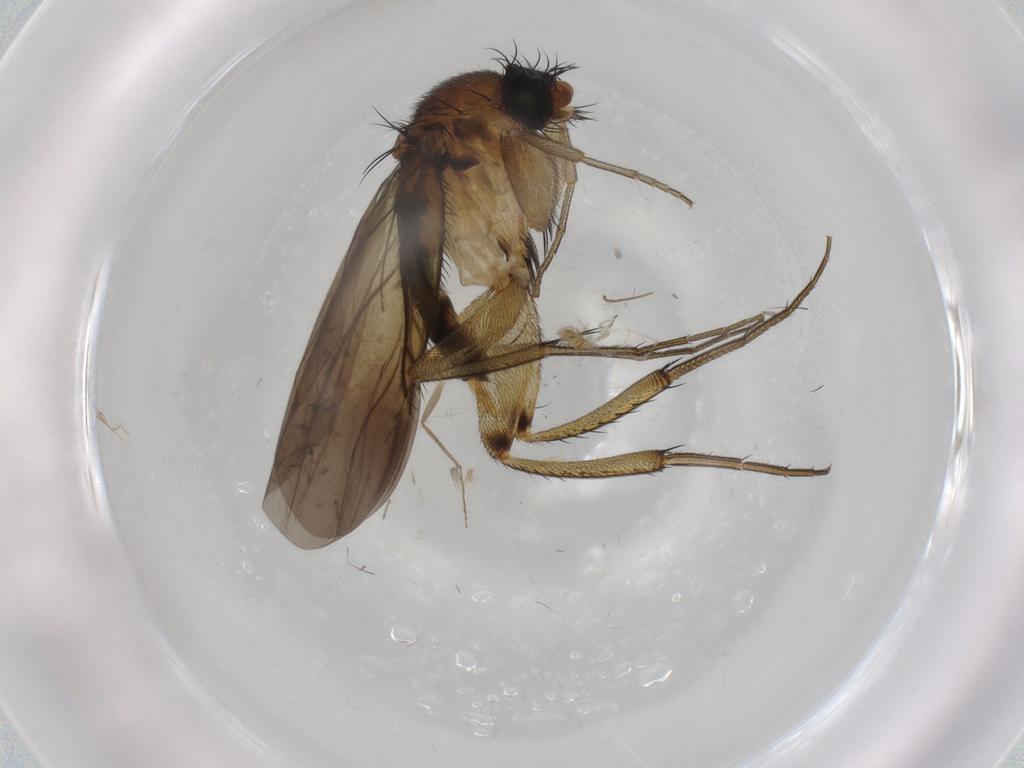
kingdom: Animalia
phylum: Arthropoda
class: Insecta
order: Diptera
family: Phoridae
